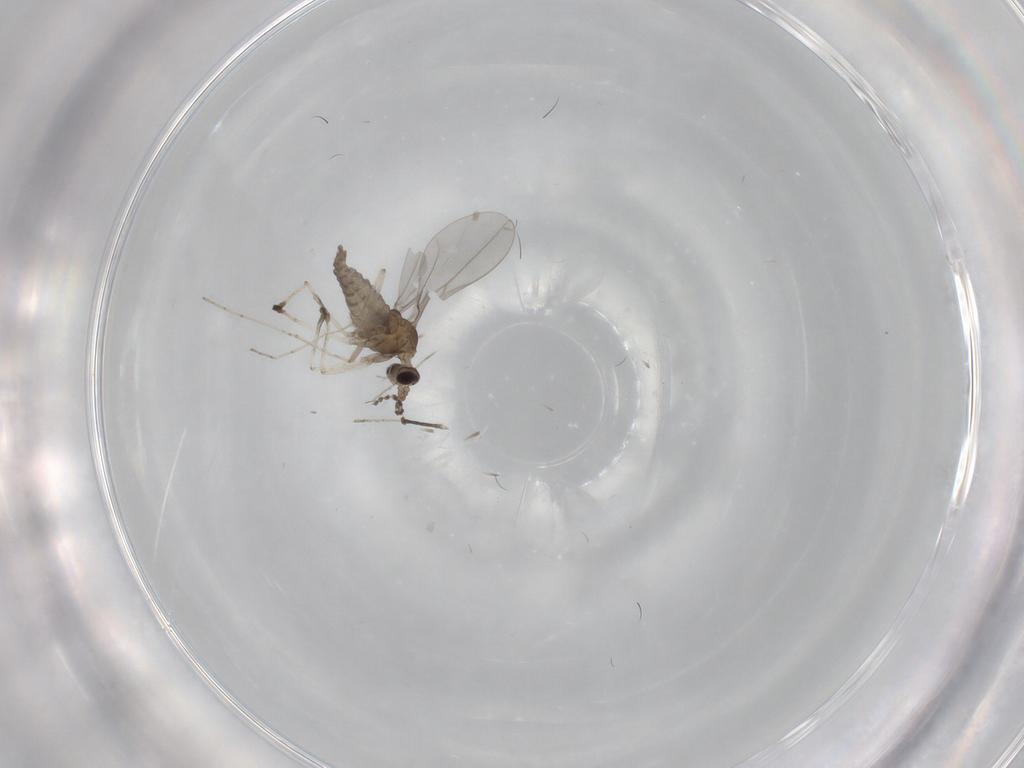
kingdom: Animalia
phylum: Arthropoda
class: Insecta
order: Diptera
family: Cecidomyiidae
